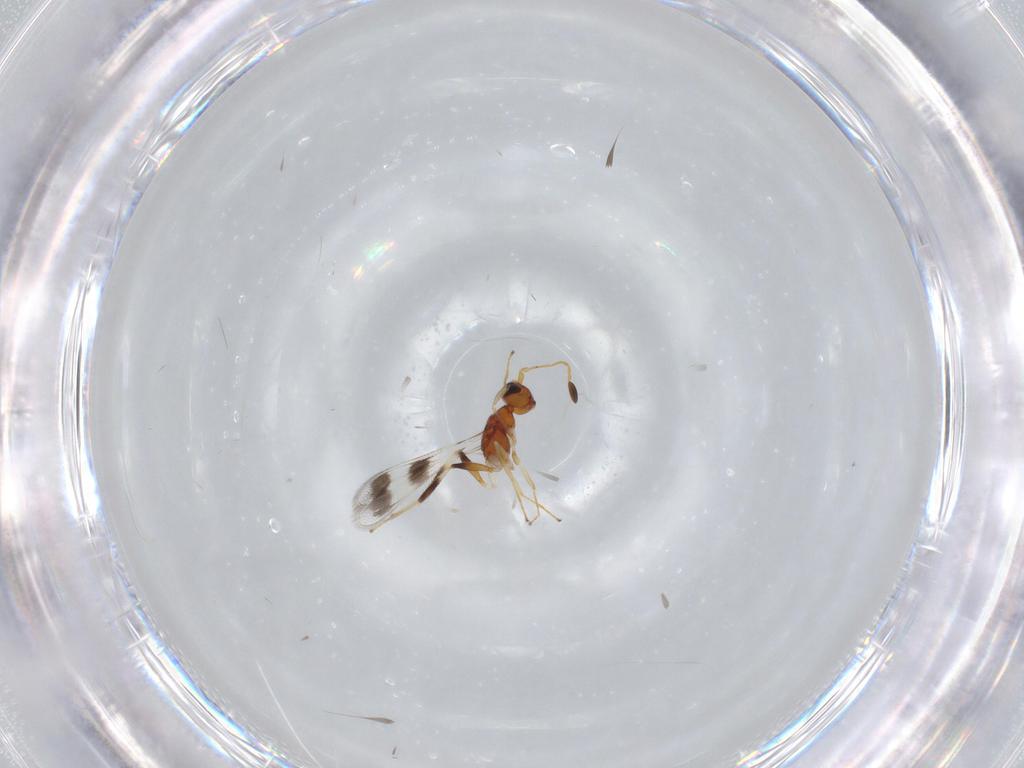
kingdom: Animalia
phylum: Arthropoda
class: Insecta
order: Hymenoptera
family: Mymaridae
